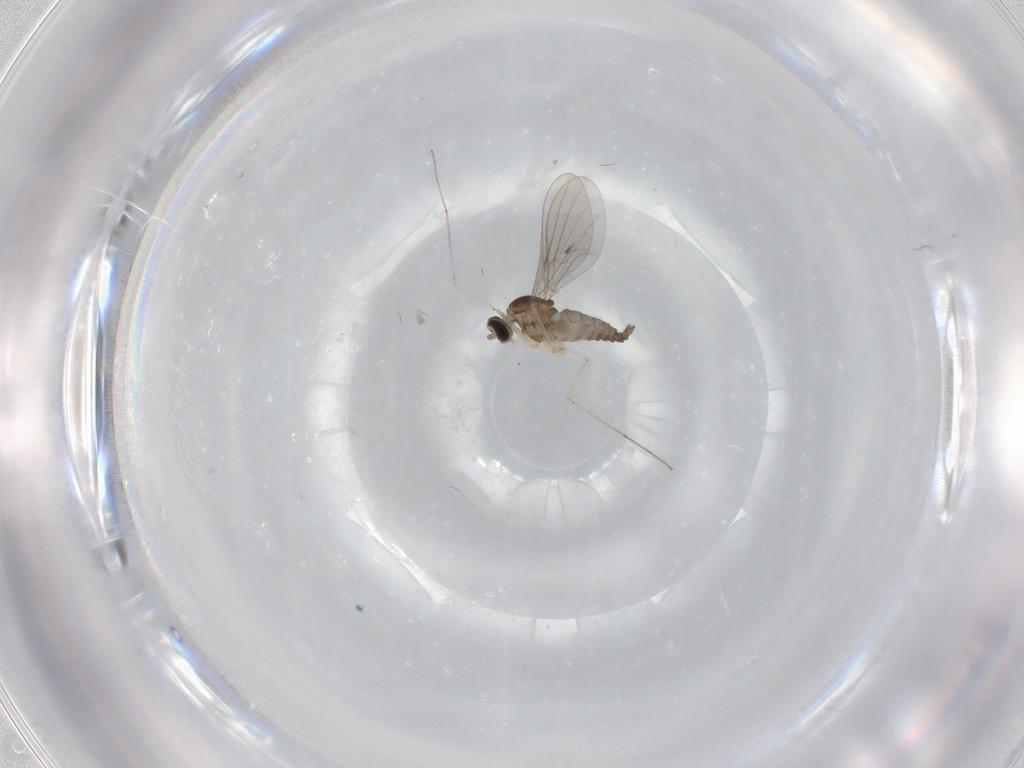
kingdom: Animalia
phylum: Arthropoda
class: Insecta
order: Diptera
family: Cecidomyiidae
